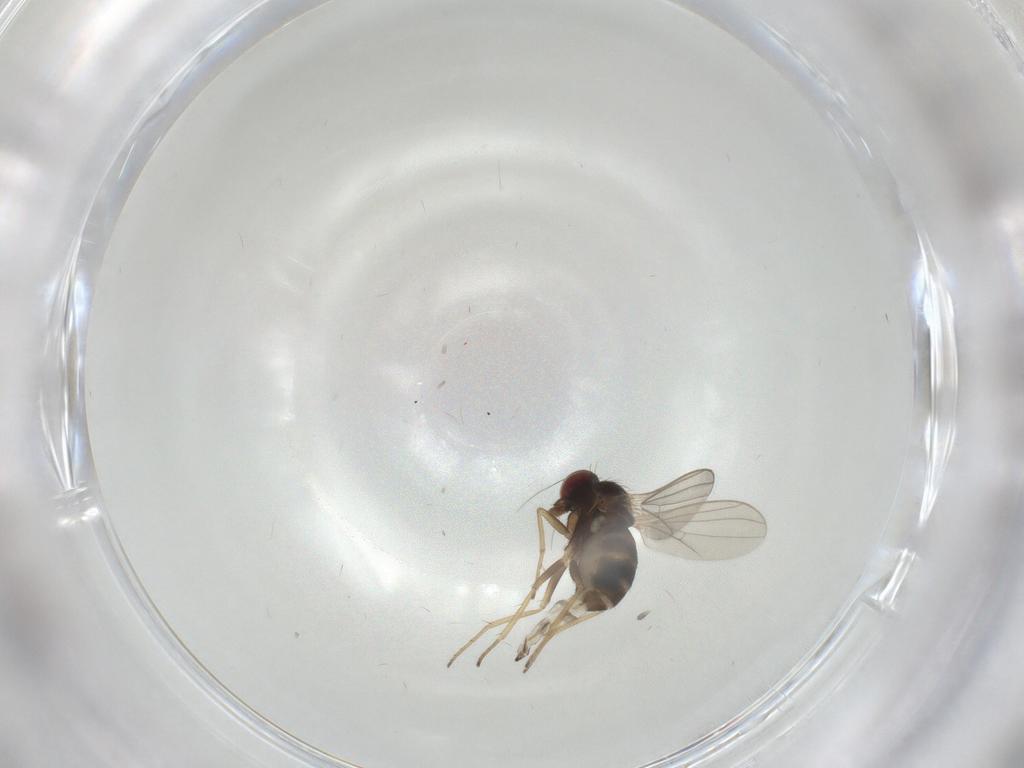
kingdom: Animalia
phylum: Arthropoda
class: Insecta
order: Diptera
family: Dolichopodidae
